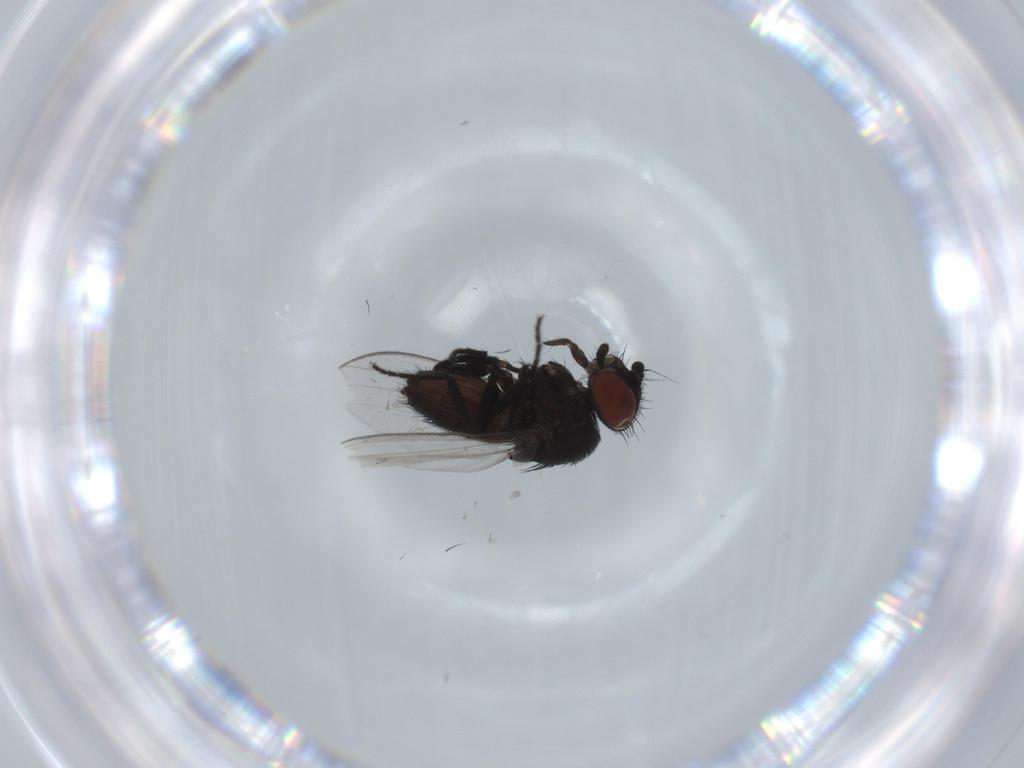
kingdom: Animalia
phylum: Arthropoda
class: Insecta
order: Diptera
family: Milichiidae
